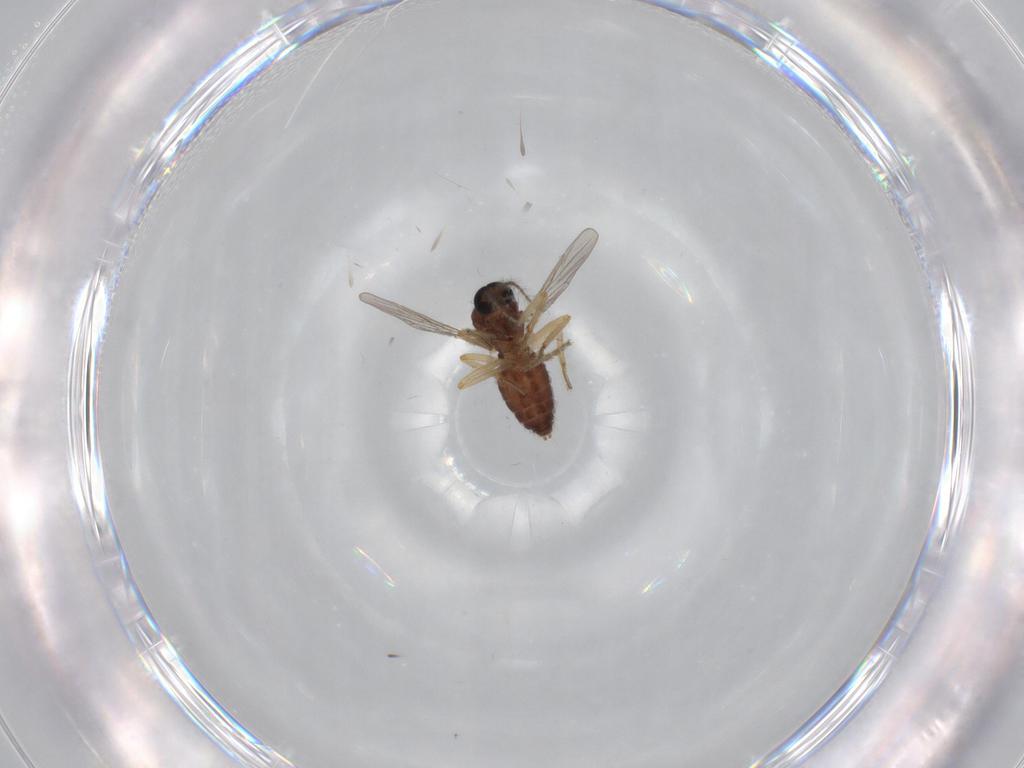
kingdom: Animalia
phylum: Arthropoda
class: Insecta
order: Diptera
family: Ceratopogonidae
